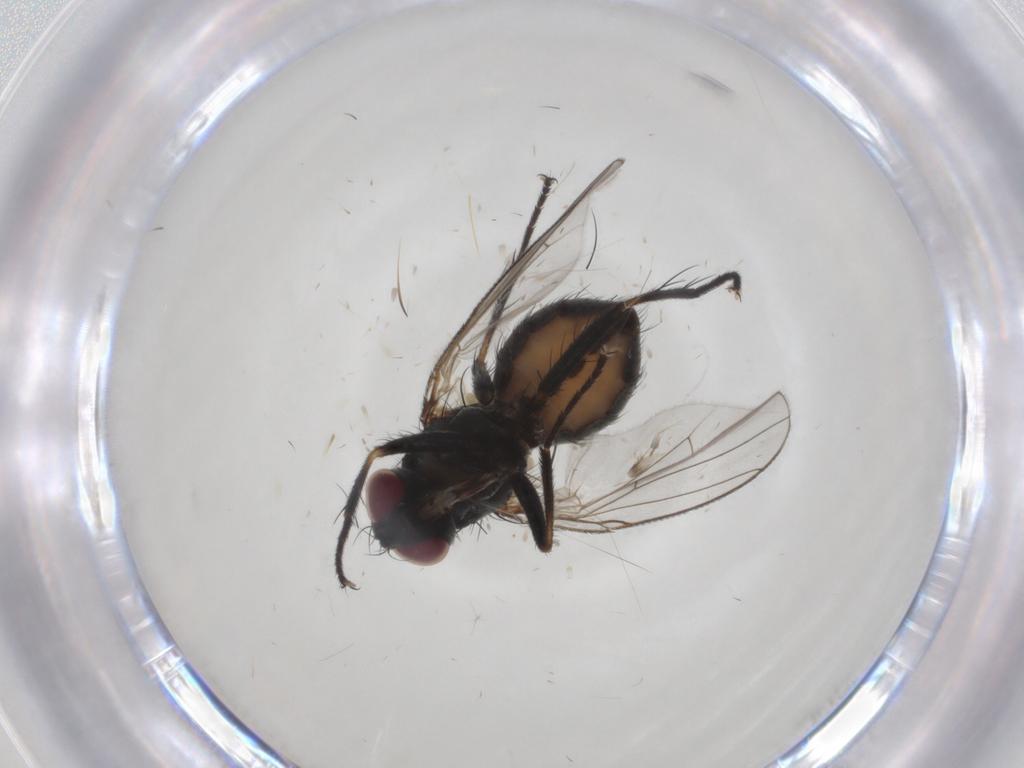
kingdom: Animalia
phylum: Arthropoda
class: Insecta
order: Diptera
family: Muscidae
